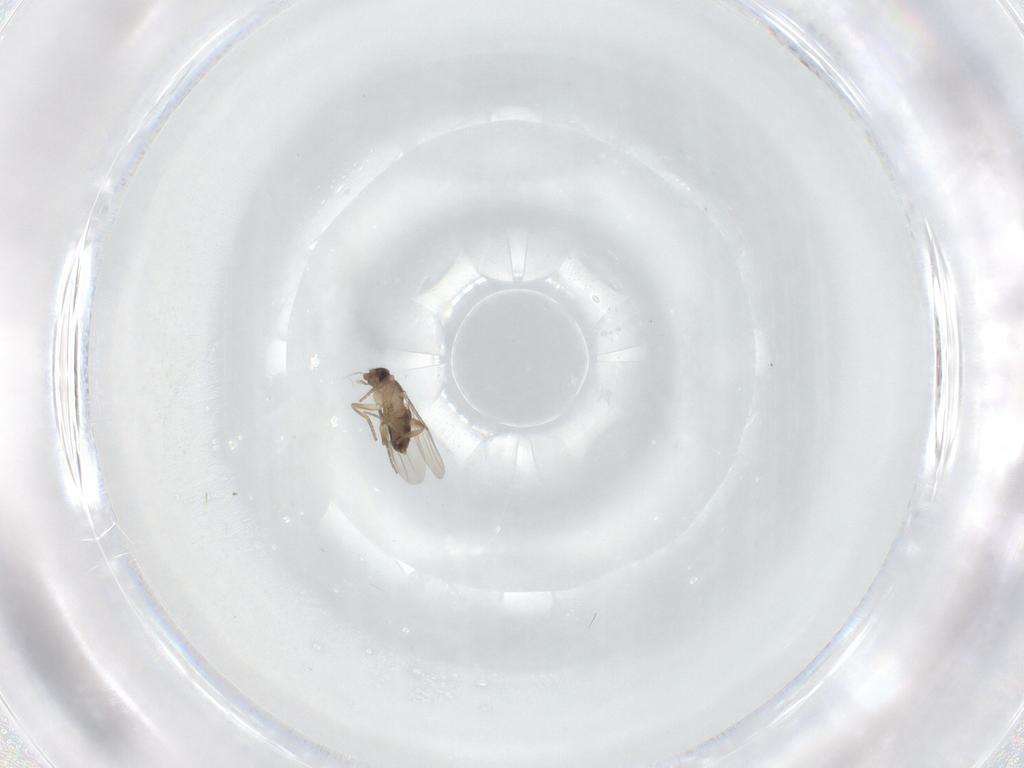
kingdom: Animalia
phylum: Arthropoda
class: Insecta
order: Diptera
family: Phoridae
